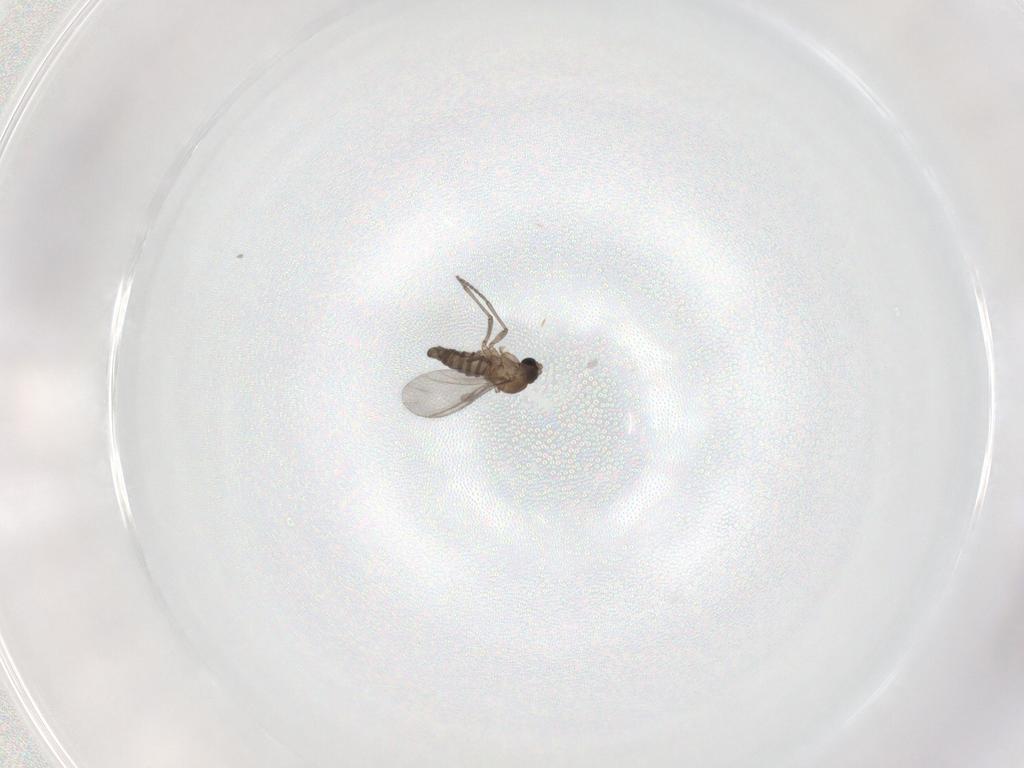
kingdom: Animalia
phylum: Arthropoda
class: Insecta
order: Diptera
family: Sciaridae
